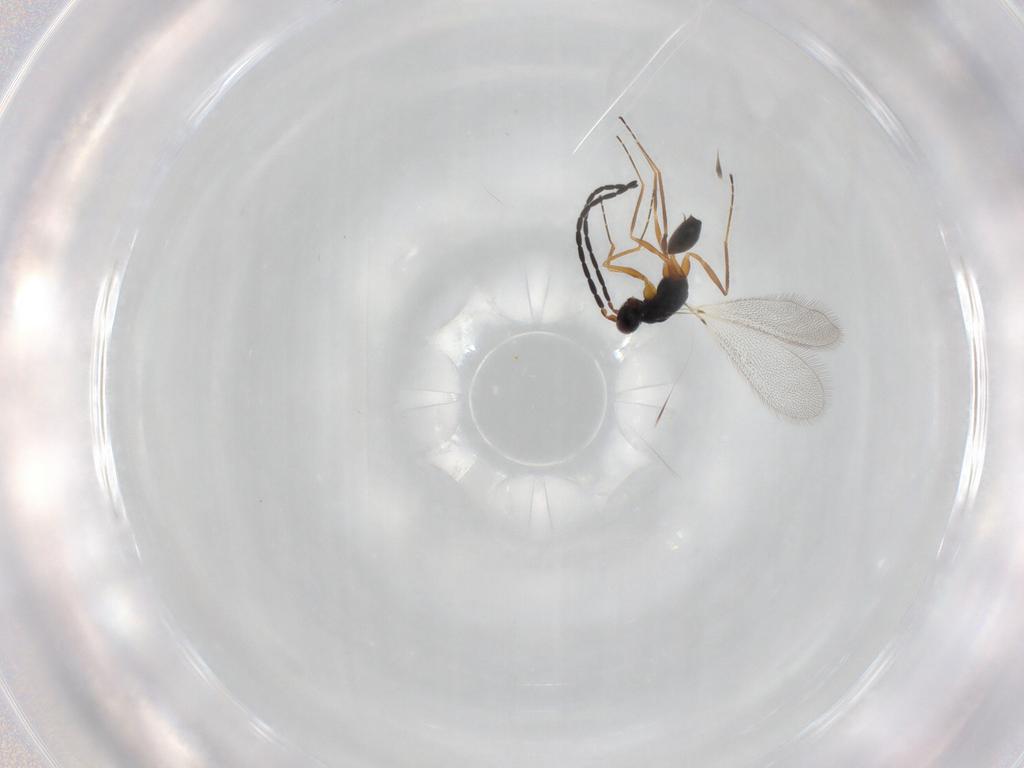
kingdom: Animalia
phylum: Arthropoda
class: Insecta
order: Hymenoptera
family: Mymaridae
